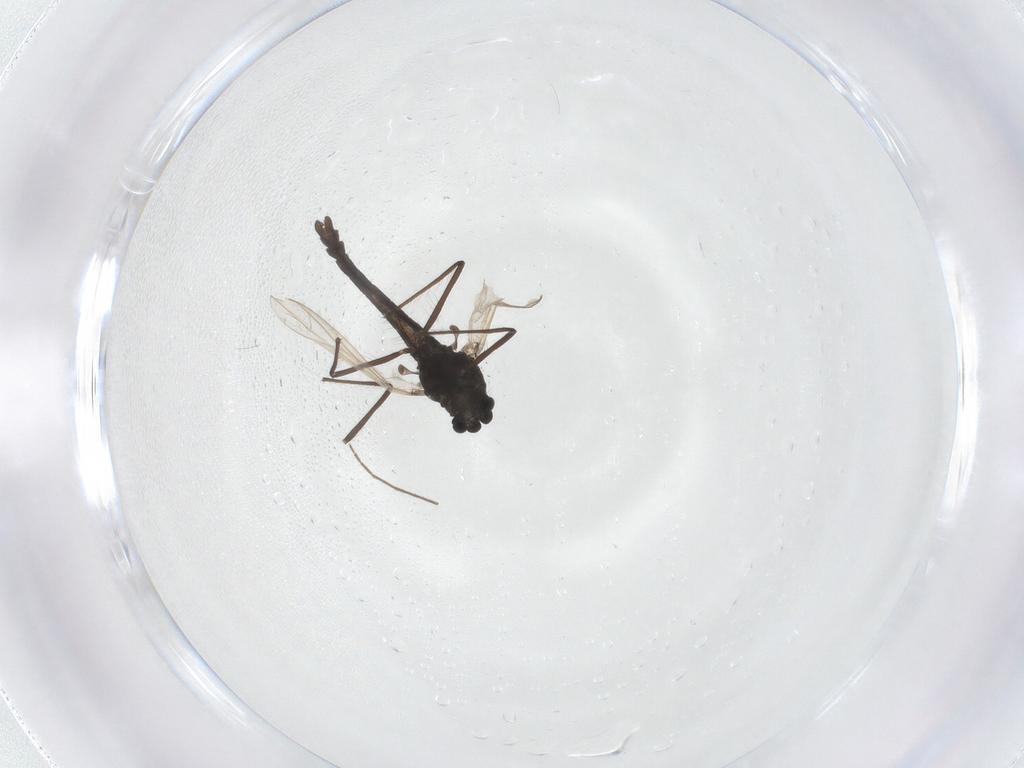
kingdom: Animalia
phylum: Arthropoda
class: Insecta
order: Diptera
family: Chironomidae
